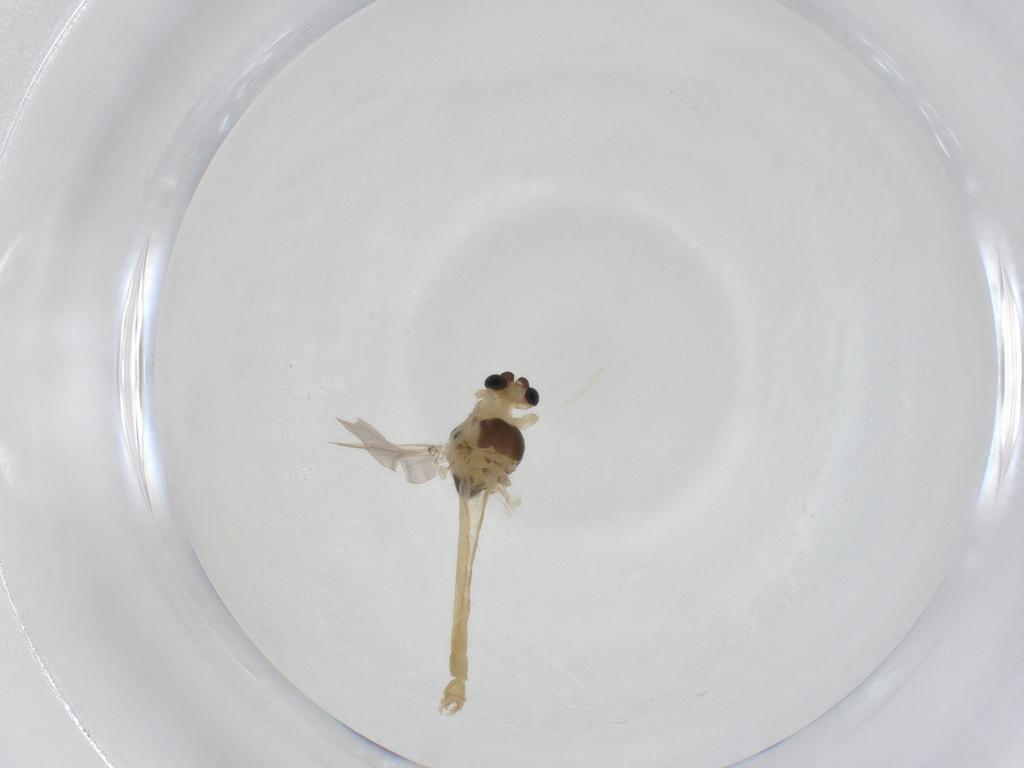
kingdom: Animalia
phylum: Arthropoda
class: Insecta
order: Diptera
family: Chironomidae
